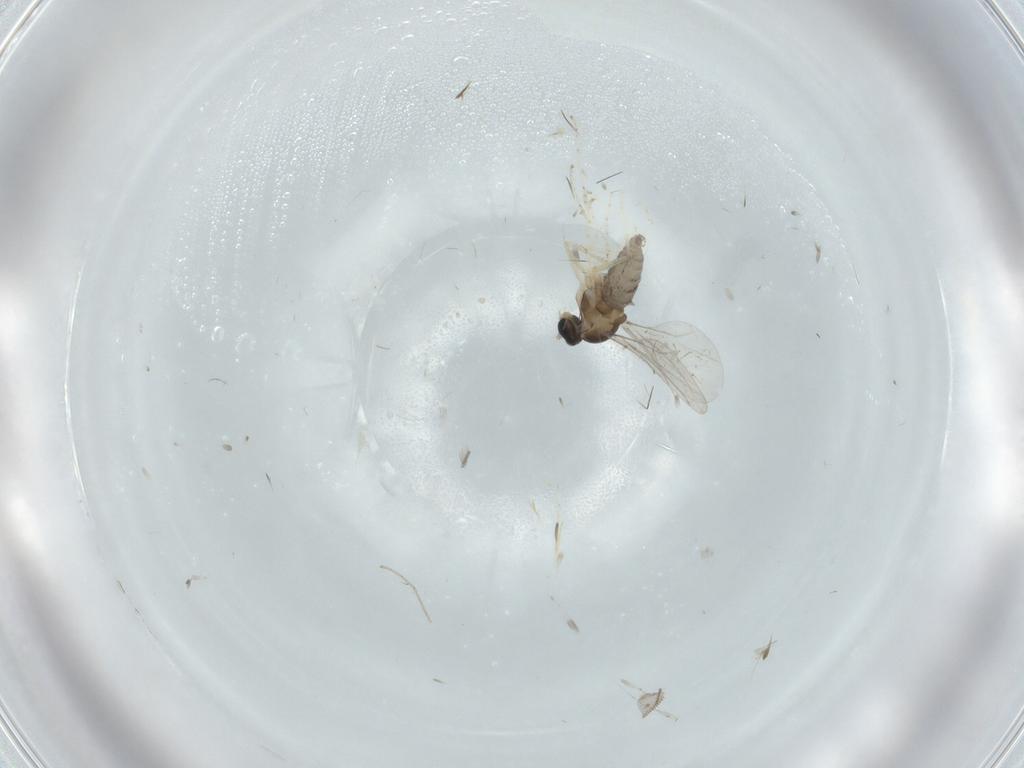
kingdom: Animalia
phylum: Arthropoda
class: Insecta
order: Diptera
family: Cecidomyiidae
